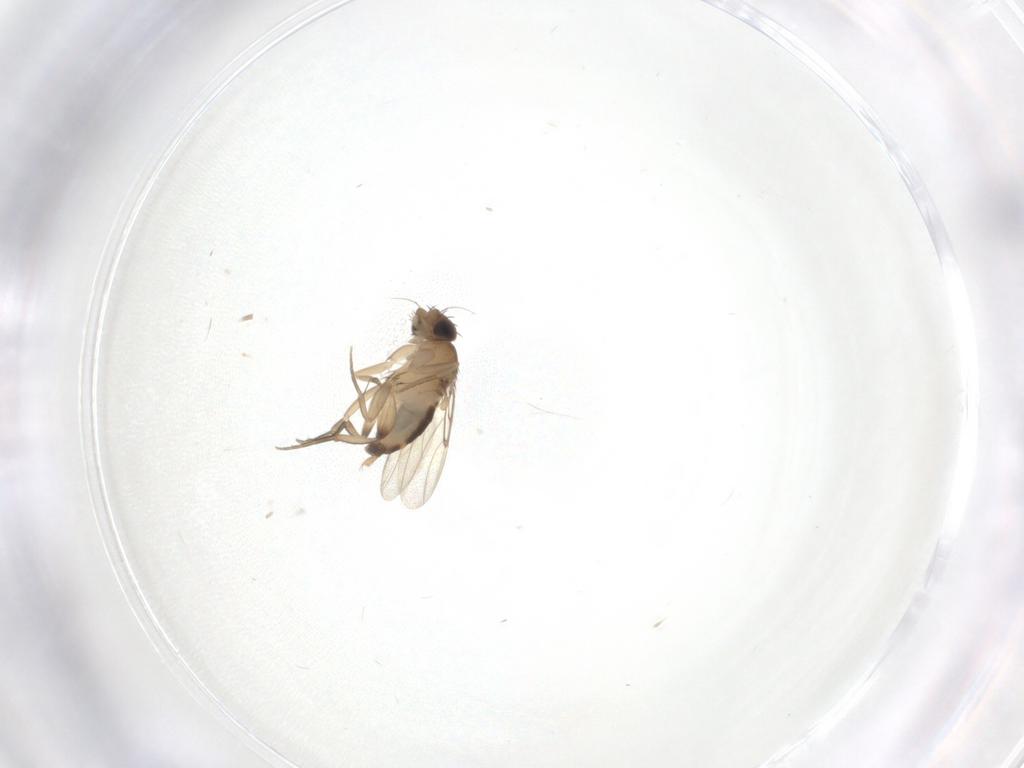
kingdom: Animalia
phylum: Arthropoda
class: Insecta
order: Diptera
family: Phoridae
